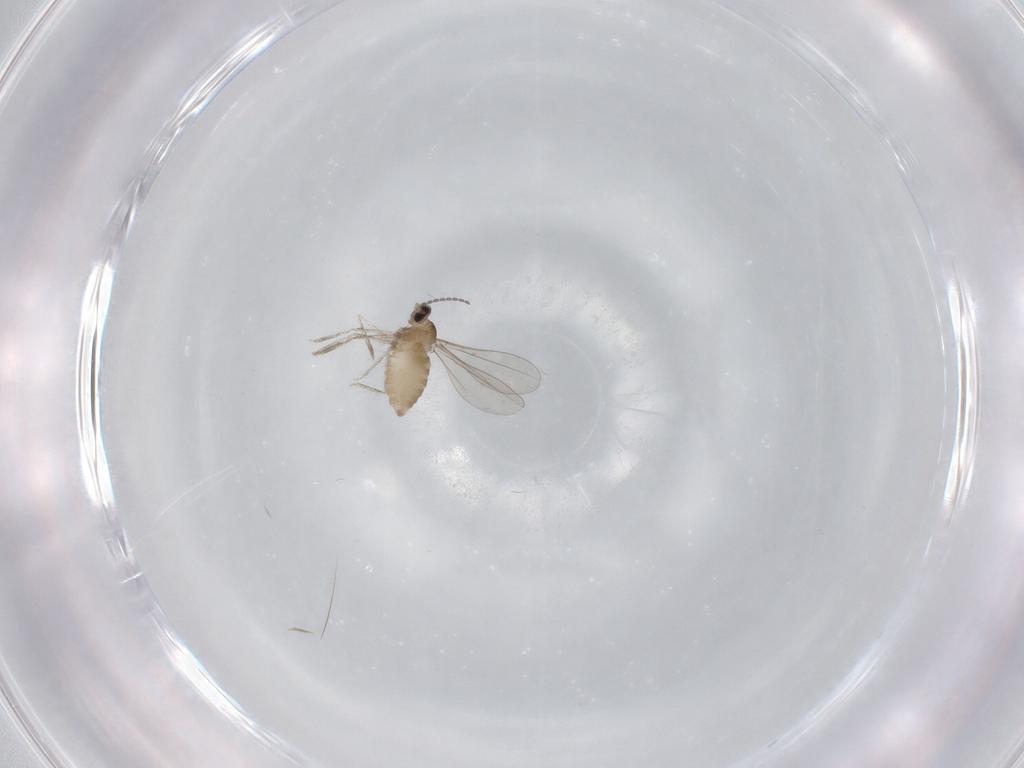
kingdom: Animalia
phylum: Arthropoda
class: Insecta
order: Diptera
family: Cecidomyiidae
